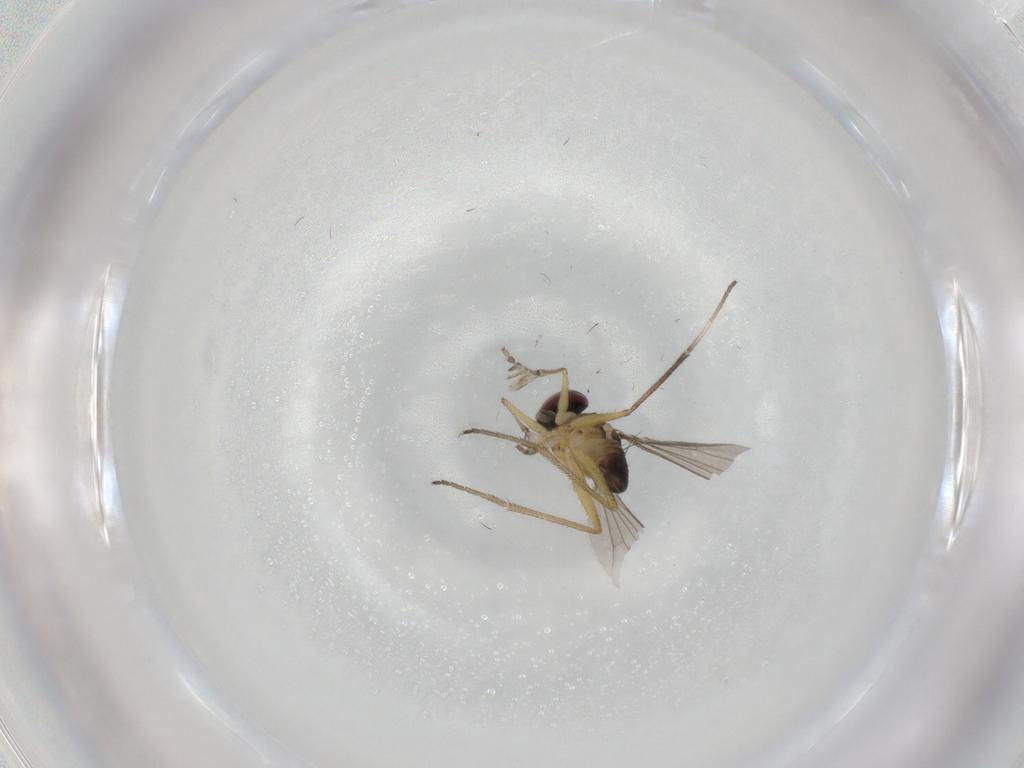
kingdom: Animalia
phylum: Arthropoda
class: Insecta
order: Diptera
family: Dolichopodidae
